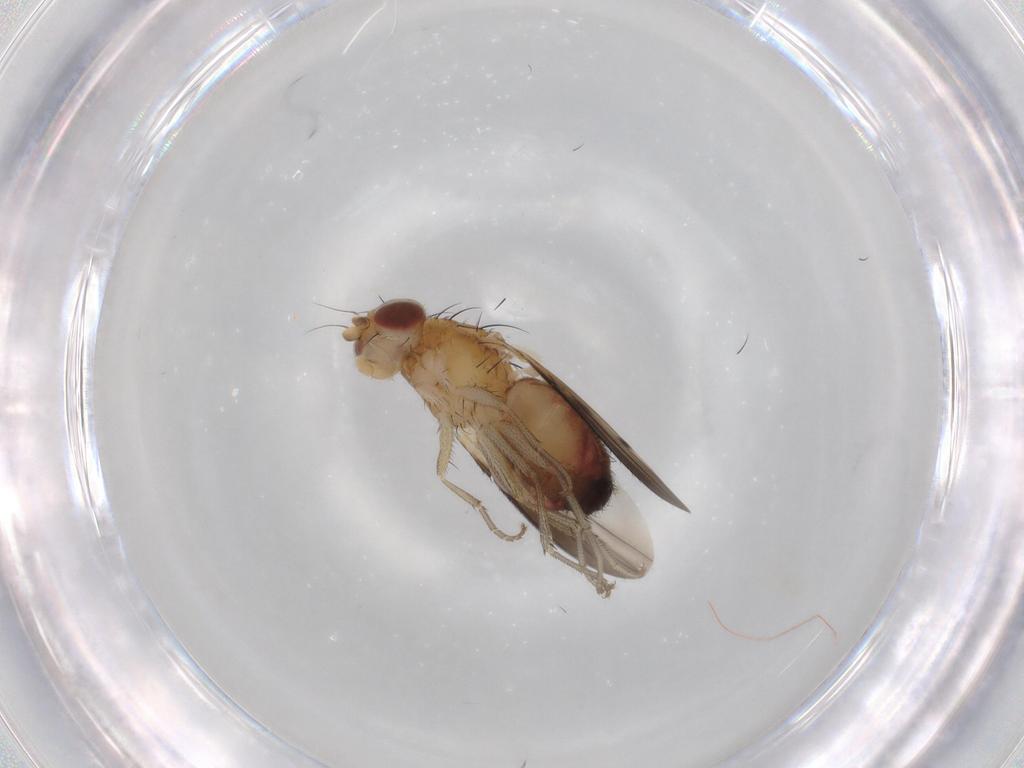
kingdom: Animalia
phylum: Arthropoda
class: Insecta
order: Diptera
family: Heleomyzidae
